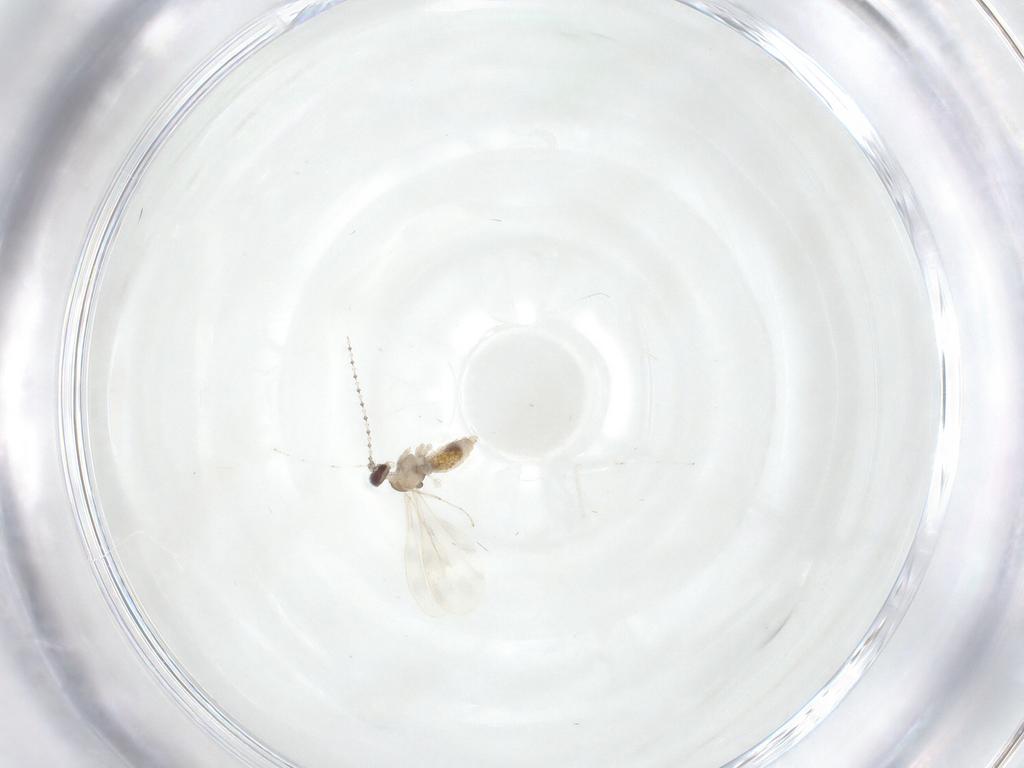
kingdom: Animalia
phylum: Arthropoda
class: Insecta
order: Diptera
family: Cecidomyiidae
